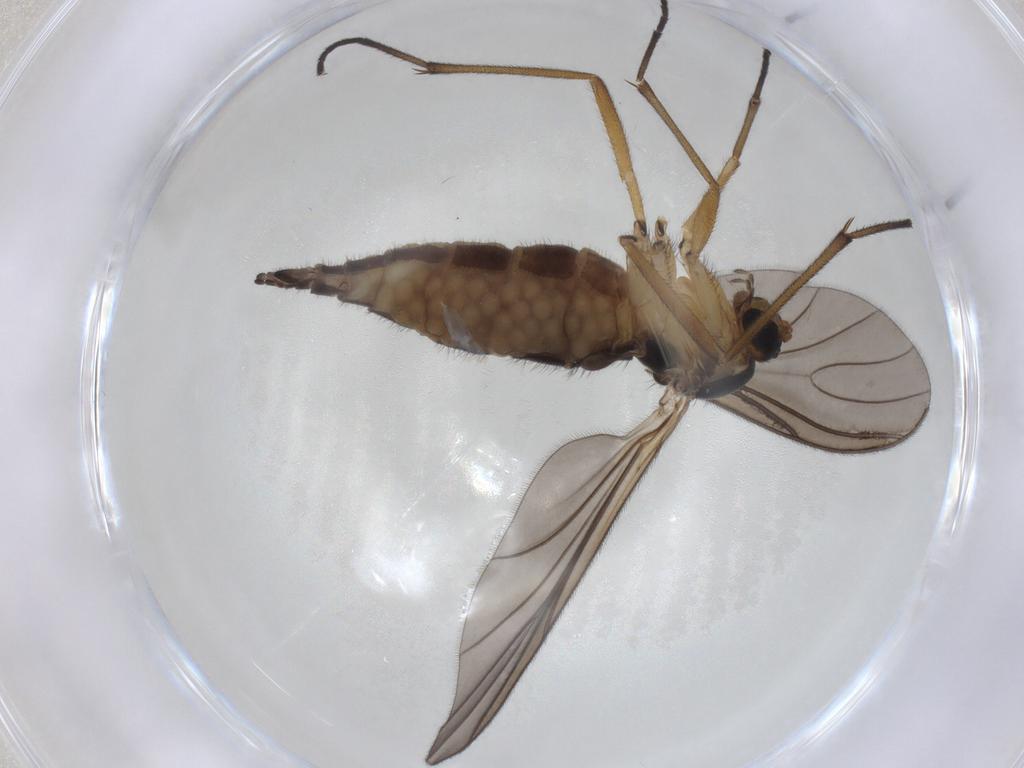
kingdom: Animalia
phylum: Arthropoda
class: Insecta
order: Diptera
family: Sciaridae
